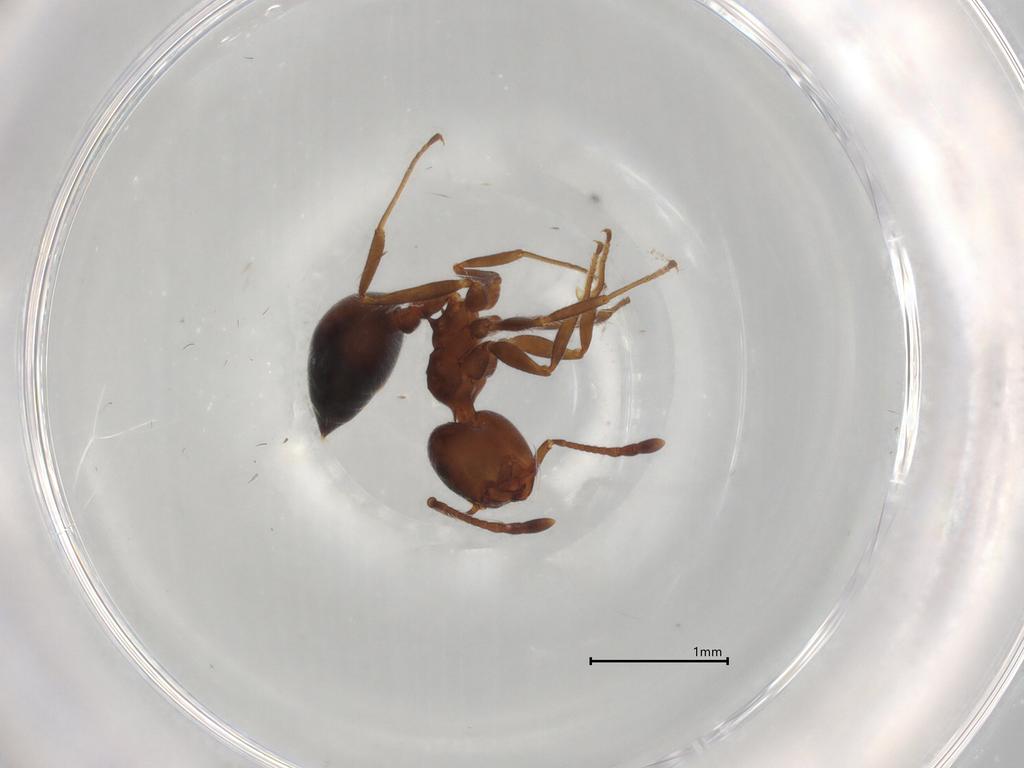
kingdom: Animalia
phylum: Arthropoda
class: Insecta
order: Hymenoptera
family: Formicidae
